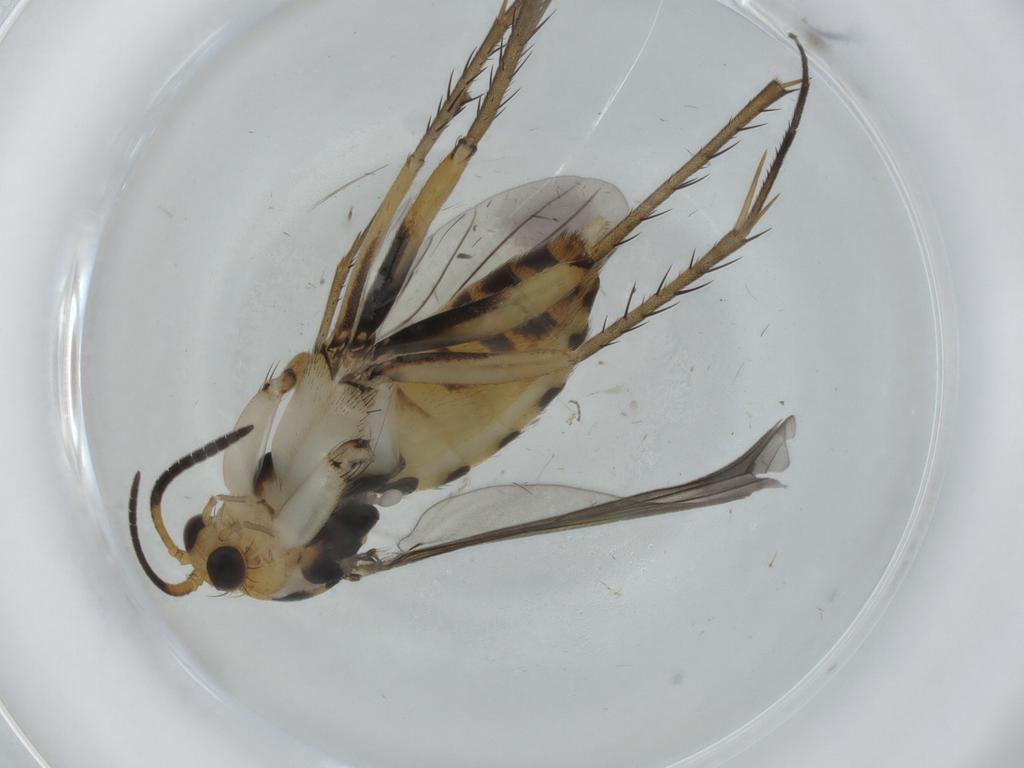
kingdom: Animalia
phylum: Arthropoda
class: Insecta
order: Diptera
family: Mycetophilidae
